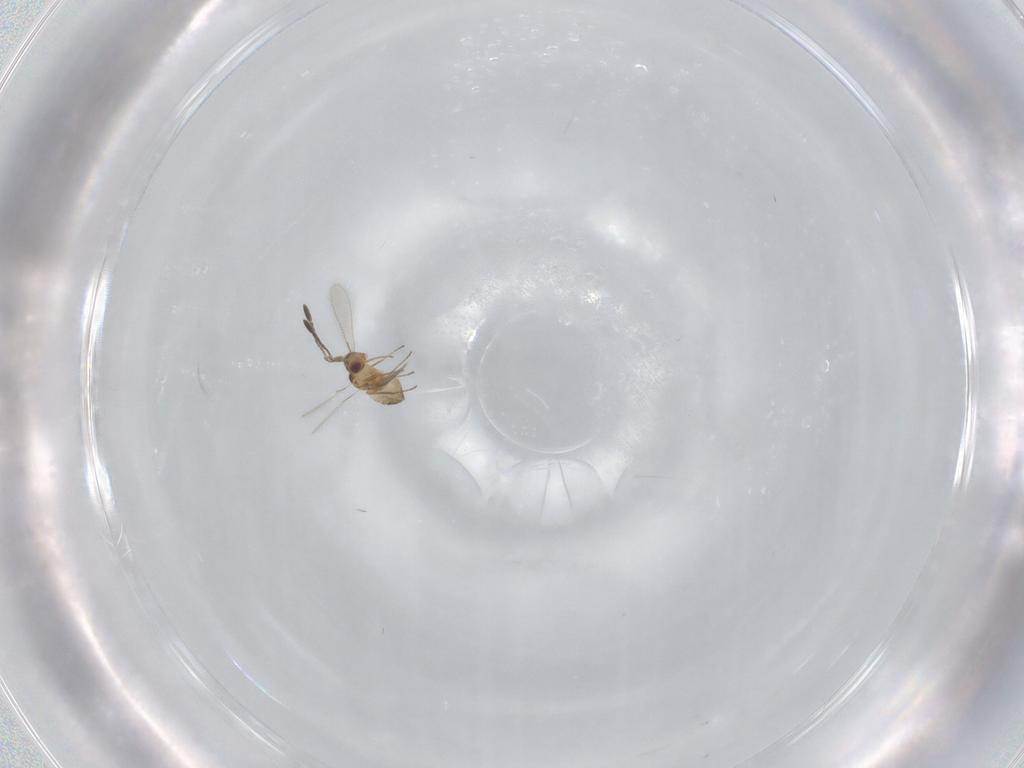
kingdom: Animalia
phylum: Arthropoda
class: Insecta
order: Hymenoptera
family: Mymaridae
